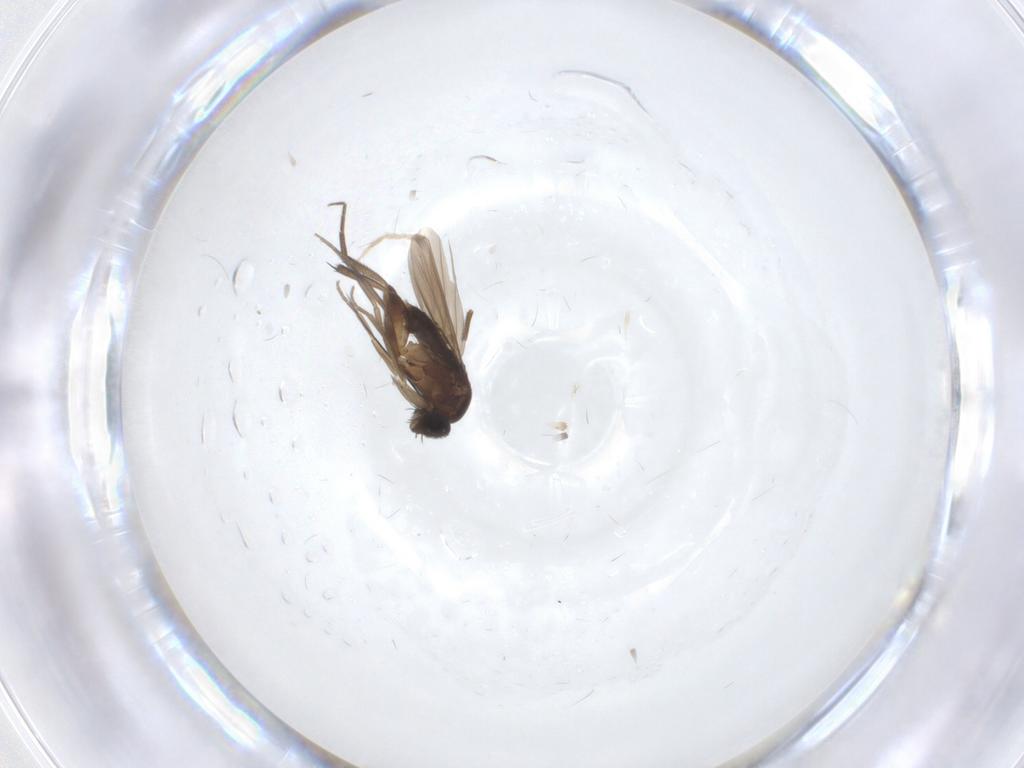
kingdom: Animalia
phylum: Arthropoda
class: Insecta
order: Diptera
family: Phoridae
